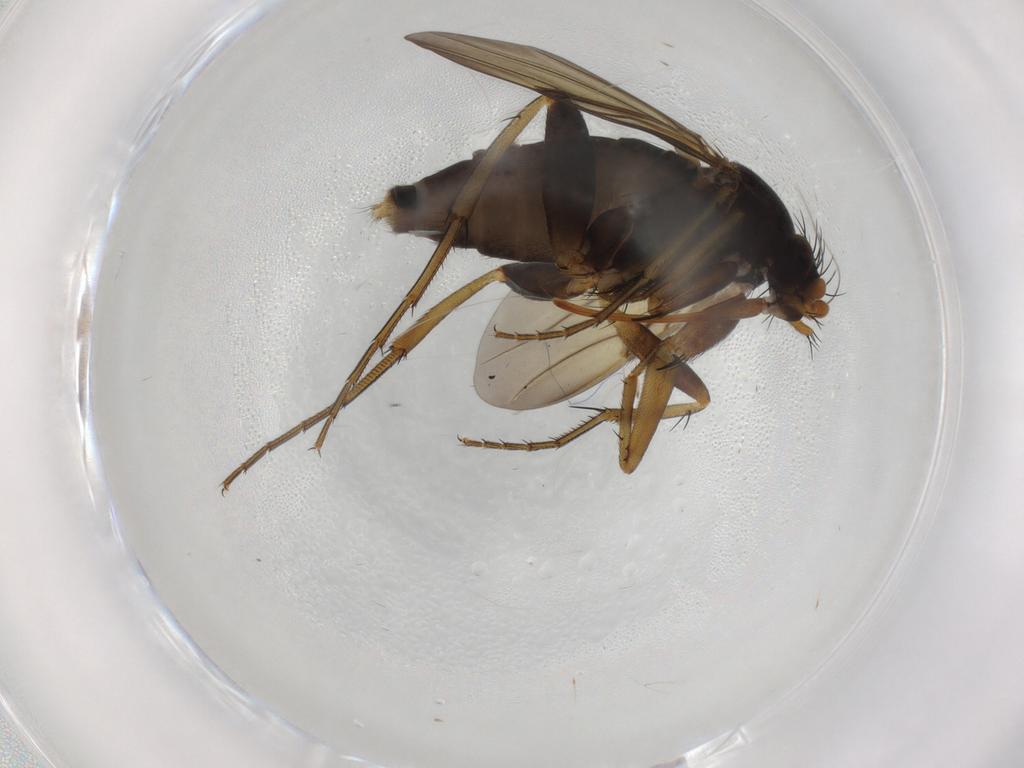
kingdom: Animalia
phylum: Arthropoda
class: Insecta
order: Diptera
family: Phoridae
